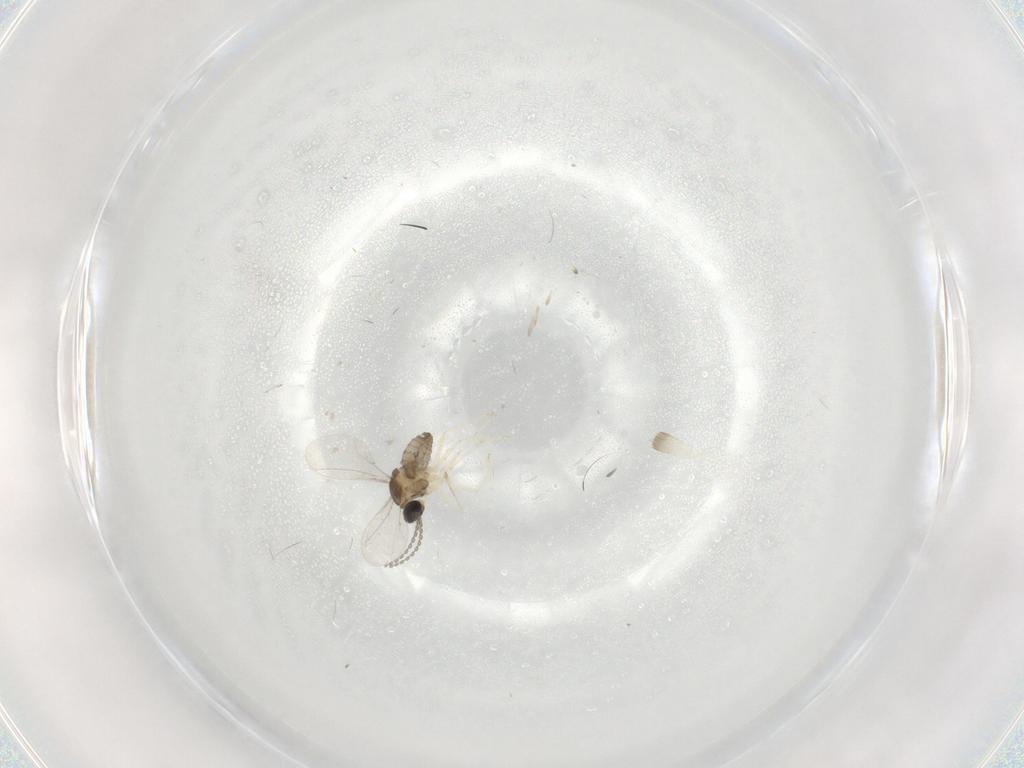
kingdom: Animalia
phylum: Arthropoda
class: Insecta
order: Diptera
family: Cecidomyiidae
